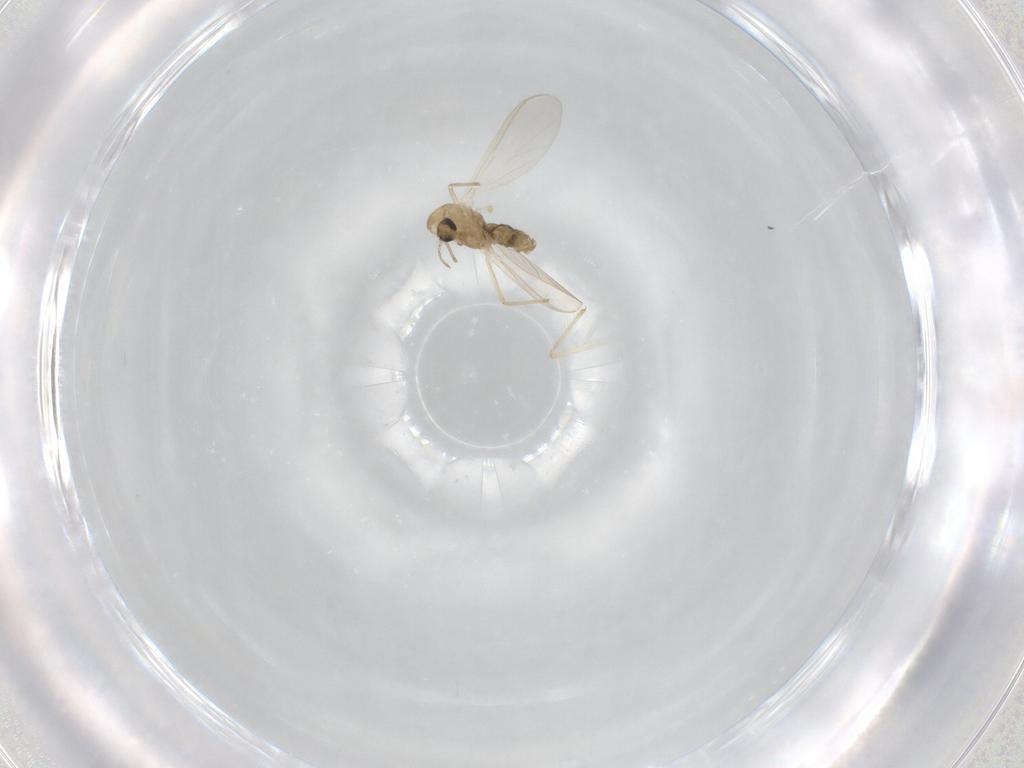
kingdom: Animalia
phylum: Arthropoda
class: Insecta
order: Diptera
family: Chironomidae
